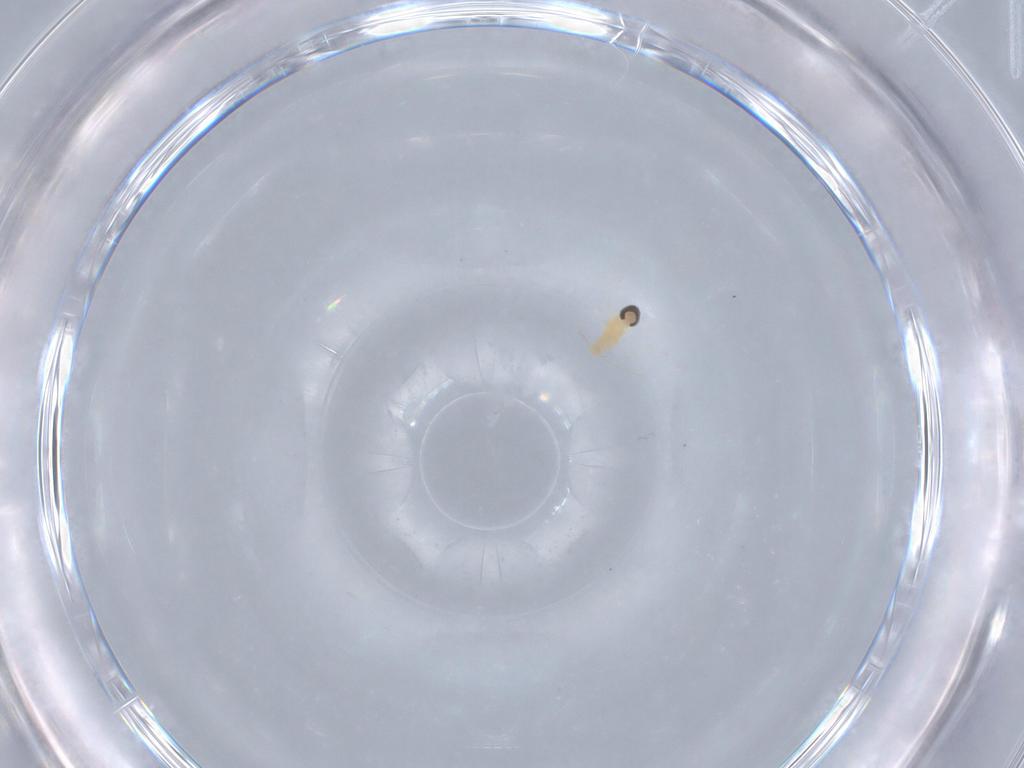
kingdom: Animalia
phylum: Arthropoda
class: Insecta
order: Diptera
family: Cecidomyiidae
